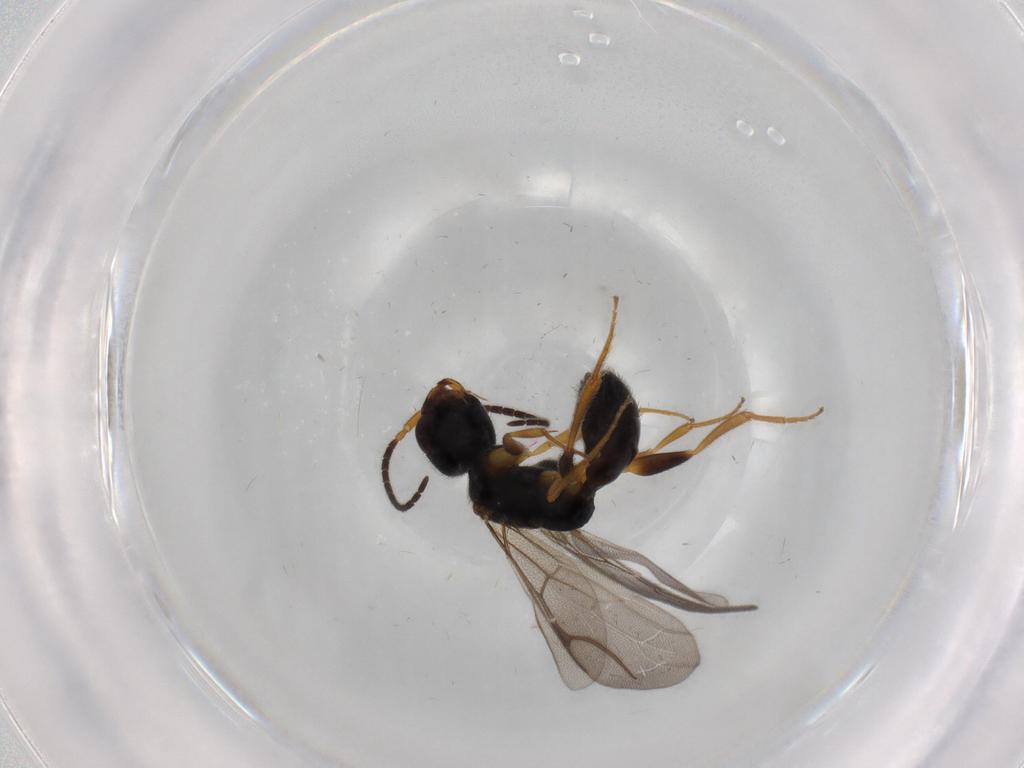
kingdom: Animalia
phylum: Arthropoda
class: Insecta
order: Hymenoptera
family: Bethylidae
